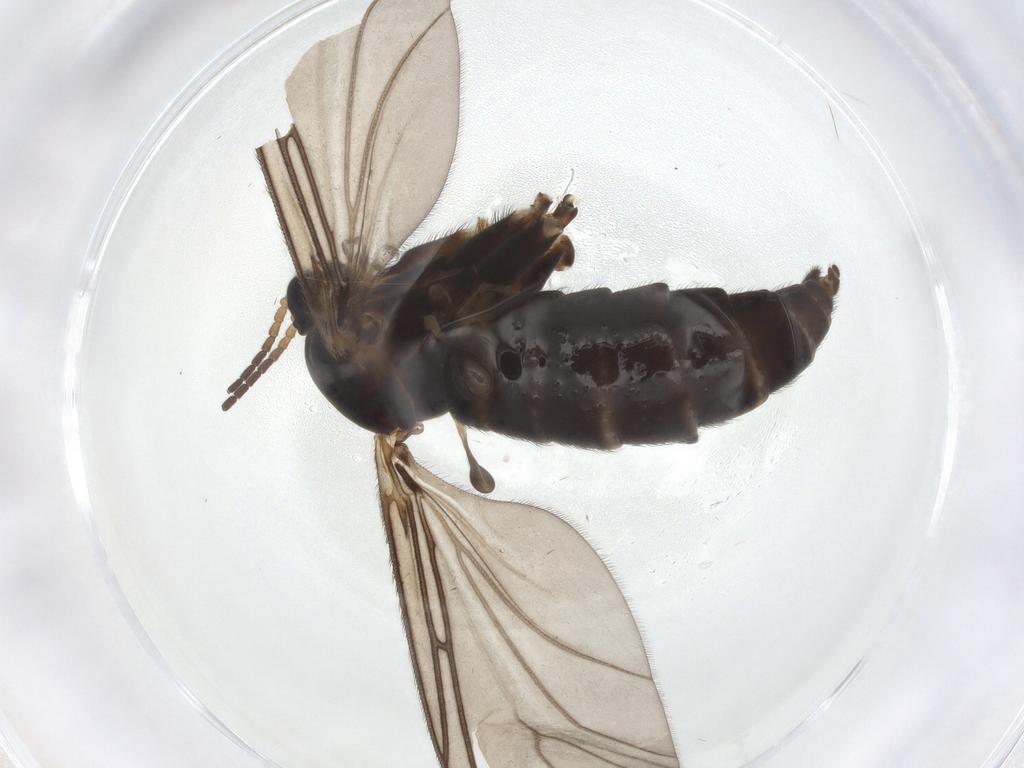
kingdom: Animalia
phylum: Arthropoda
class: Insecta
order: Diptera
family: Sciaridae
